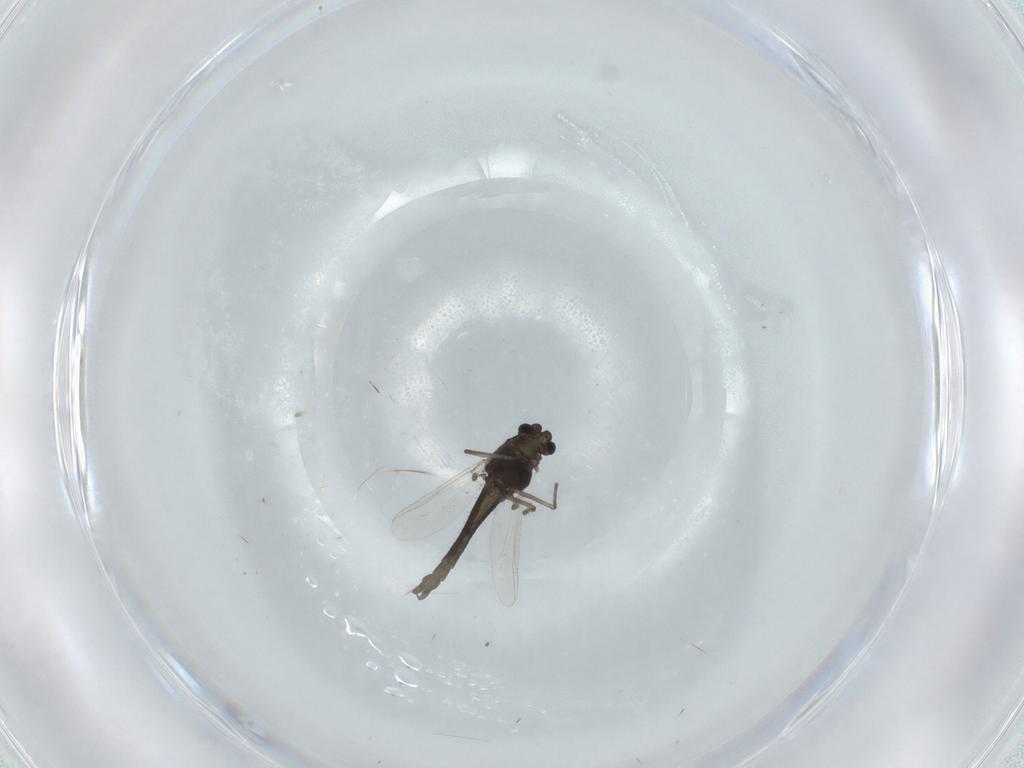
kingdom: Animalia
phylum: Arthropoda
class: Insecta
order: Diptera
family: Chironomidae
